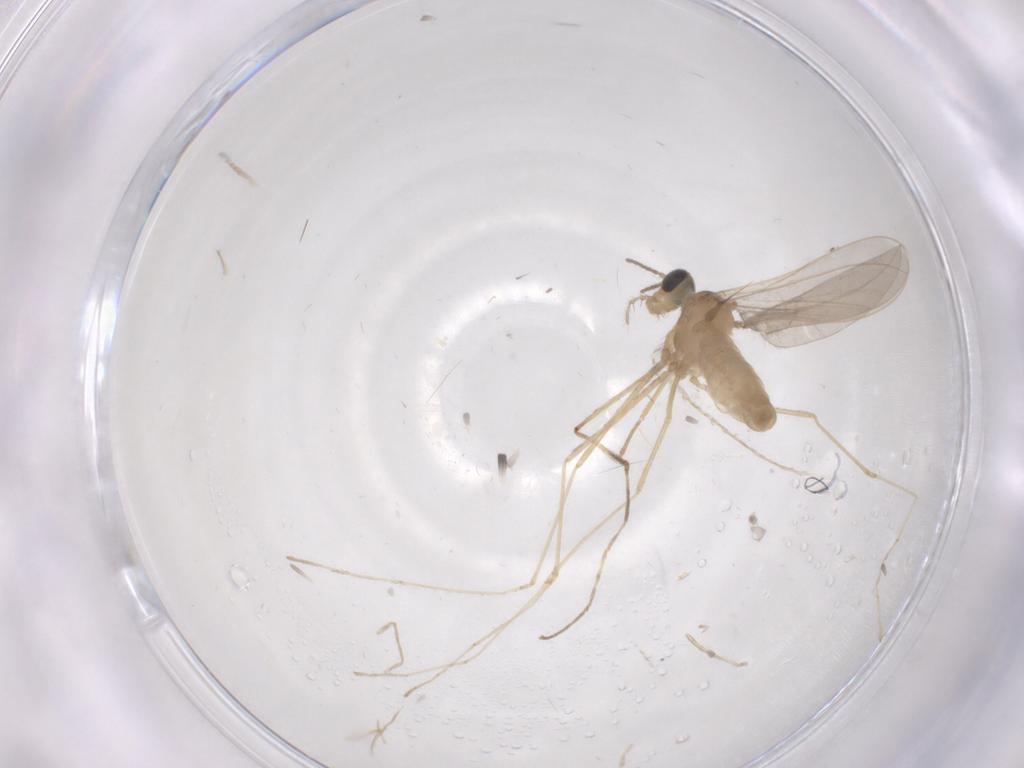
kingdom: Animalia
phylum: Arthropoda
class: Insecta
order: Diptera
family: Cecidomyiidae
